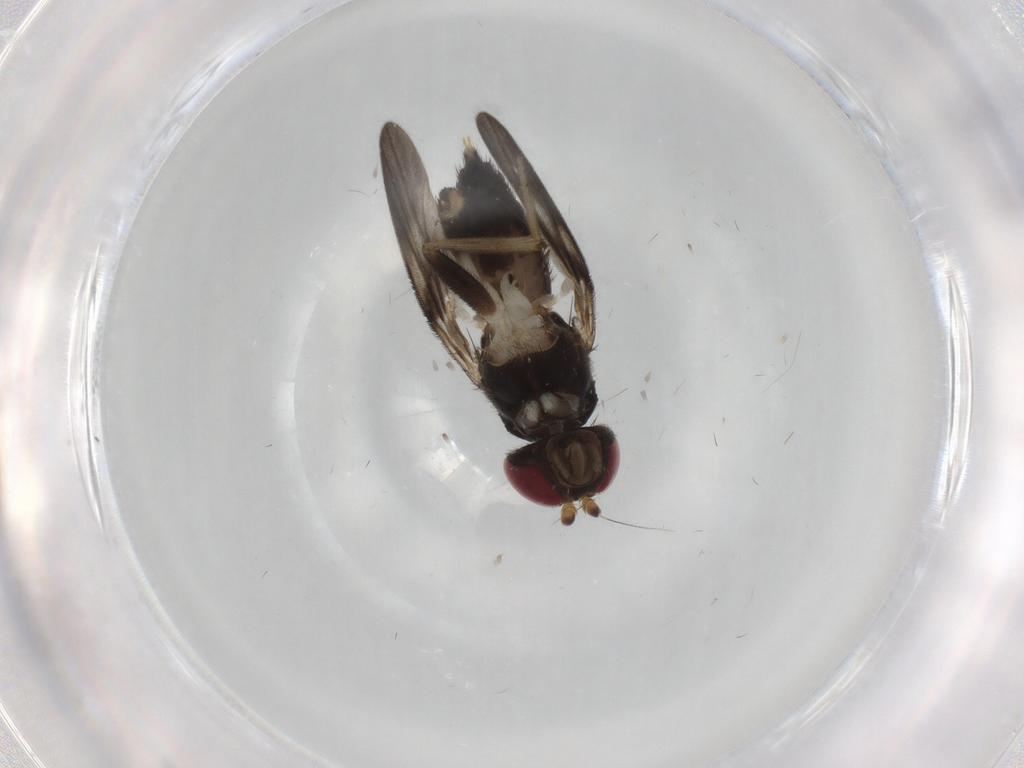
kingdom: Animalia
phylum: Arthropoda
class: Insecta
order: Diptera
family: Clusiidae
